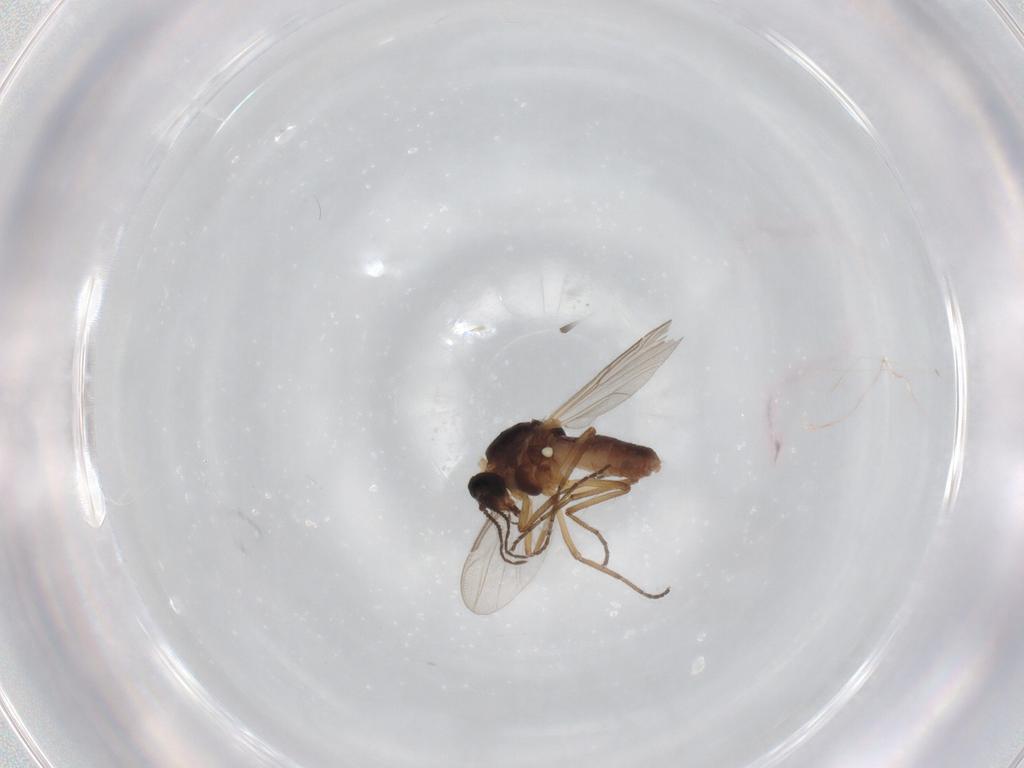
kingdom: Animalia
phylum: Arthropoda
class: Insecta
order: Diptera
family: Ceratopogonidae
